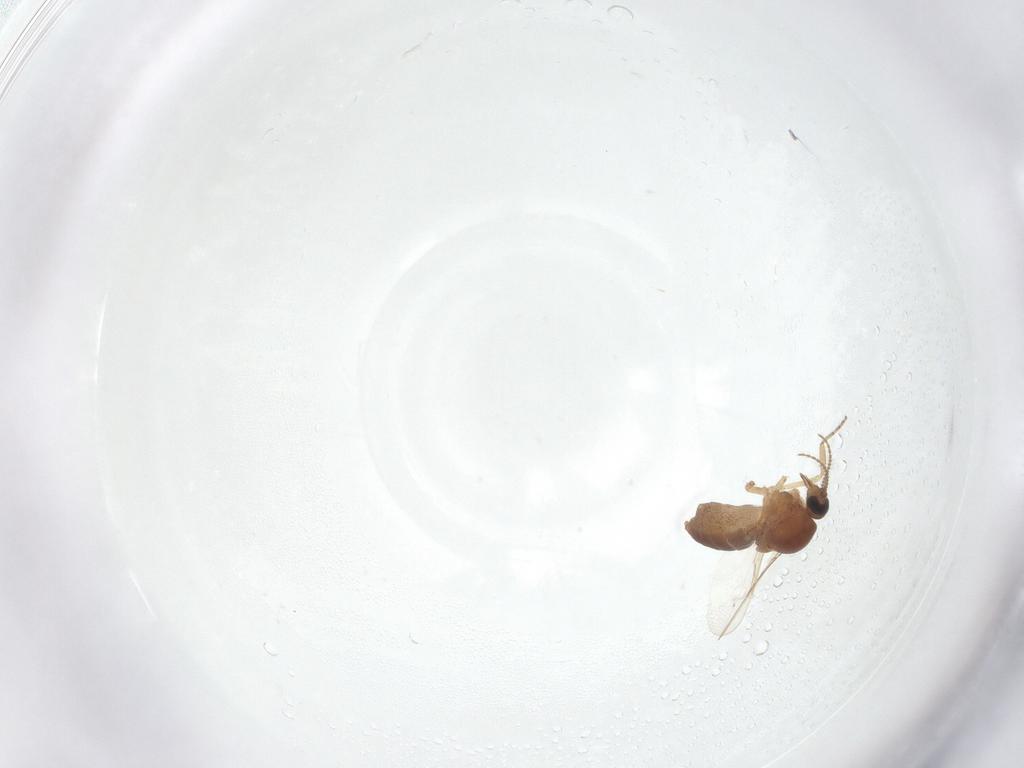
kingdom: Animalia
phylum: Arthropoda
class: Insecta
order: Diptera
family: Ceratopogonidae
